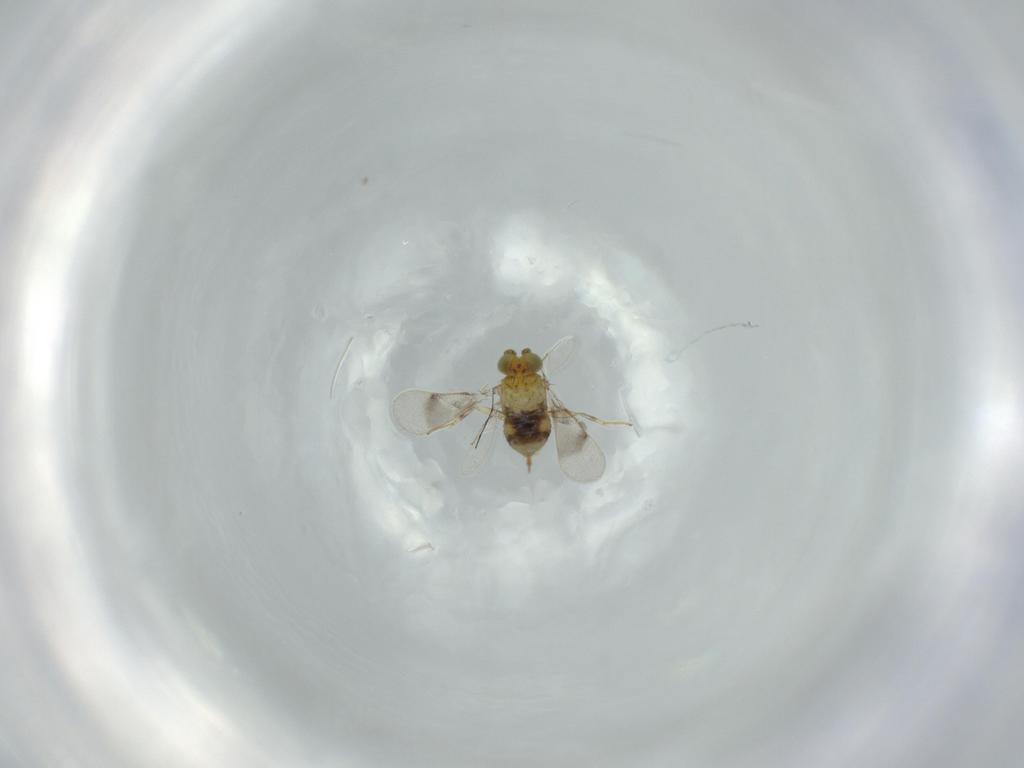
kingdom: Animalia
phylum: Arthropoda
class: Insecta
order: Hymenoptera
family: Aphelinidae
